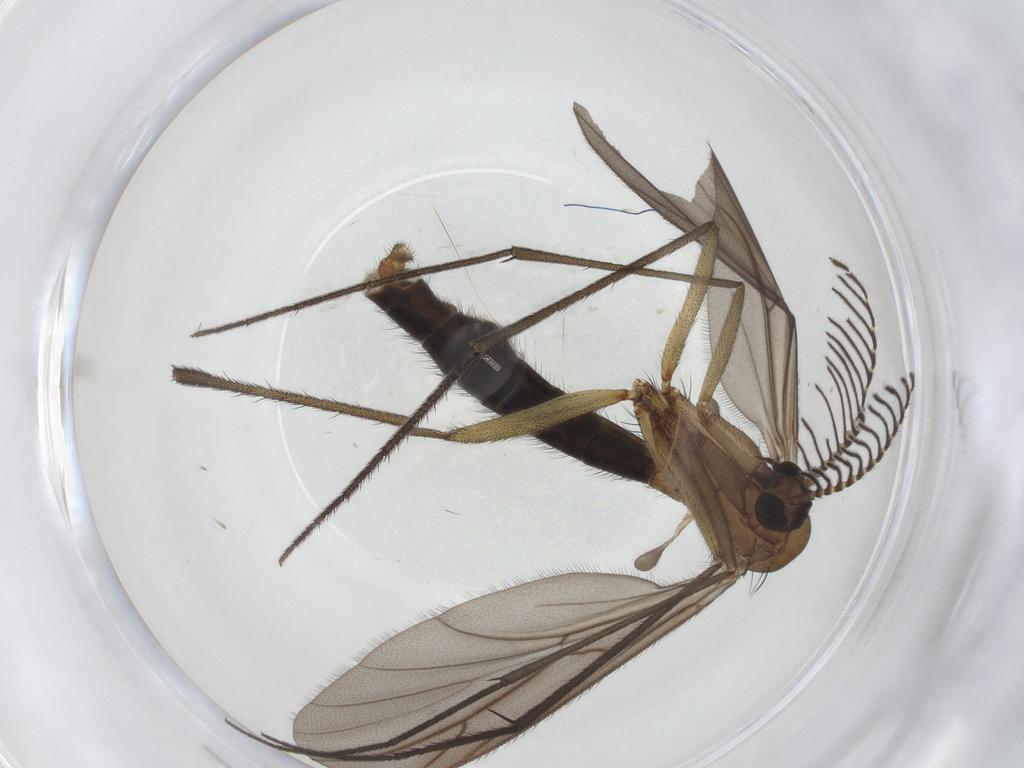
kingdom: Animalia
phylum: Arthropoda
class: Insecta
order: Diptera
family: Ditomyiidae
